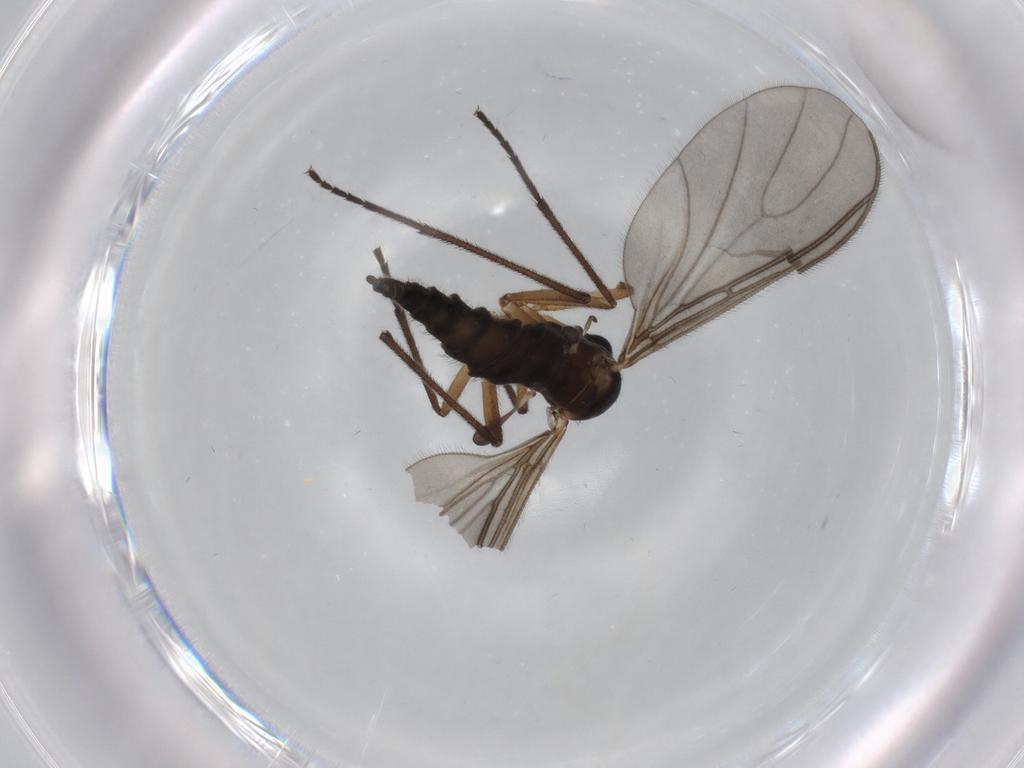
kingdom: Animalia
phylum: Arthropoda
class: Insecta
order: Diptera
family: Sciaridae
